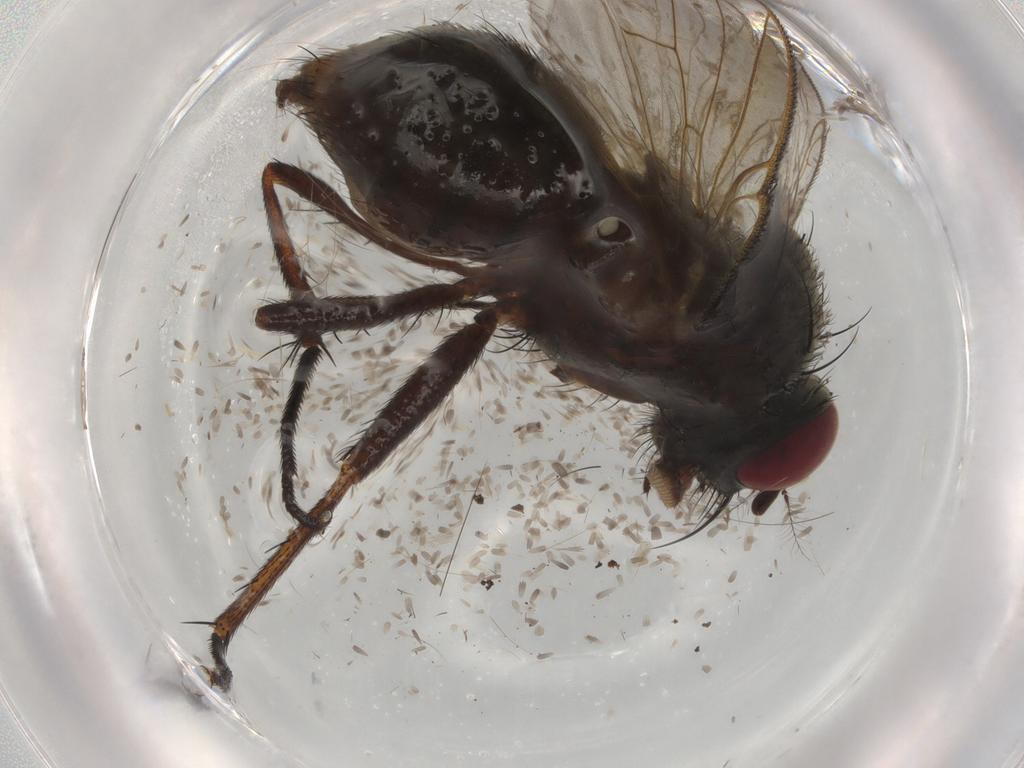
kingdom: Animalia
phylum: Arthropoda
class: Insecta
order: Diptera
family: Muscidae
